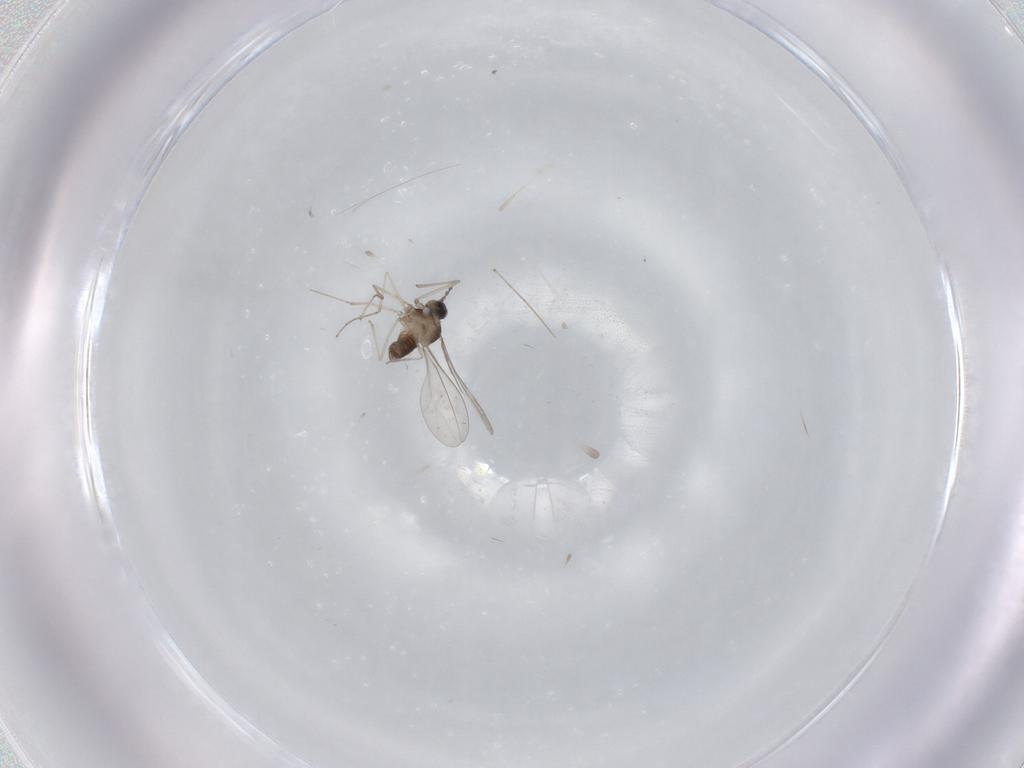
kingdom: Animalia
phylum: Arthropoda
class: Insecta
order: Diptera
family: Cecidomyiidae
